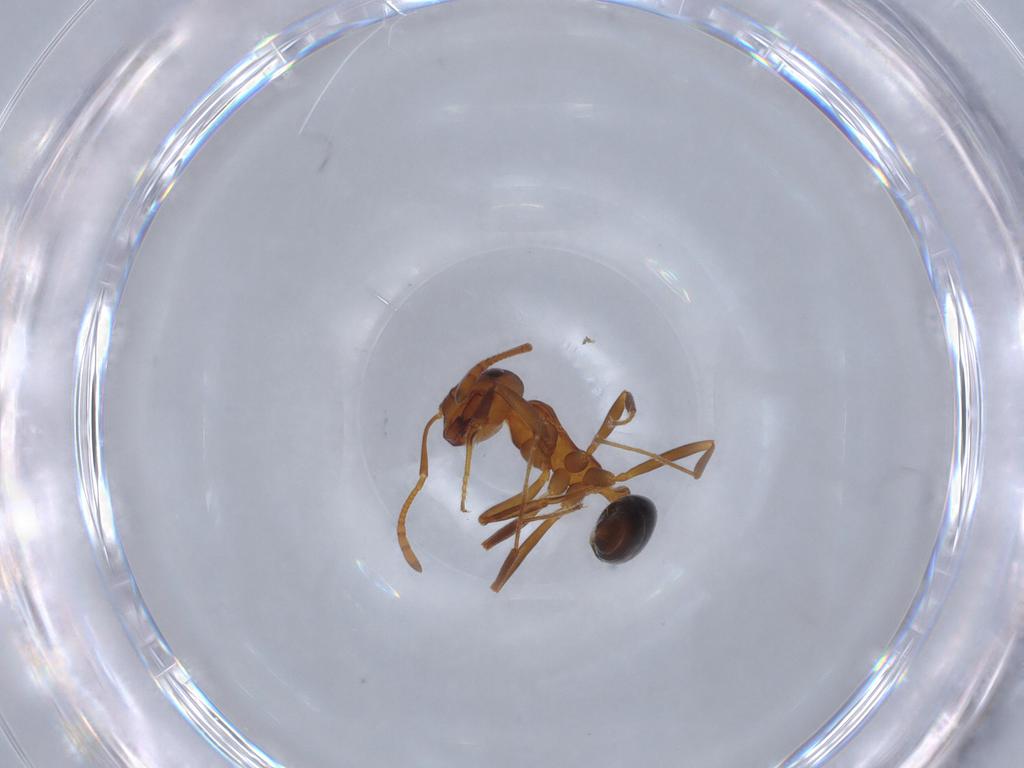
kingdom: Animalia
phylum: Arthropoda
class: Insecta
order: Hymenoptera
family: Formicidae
